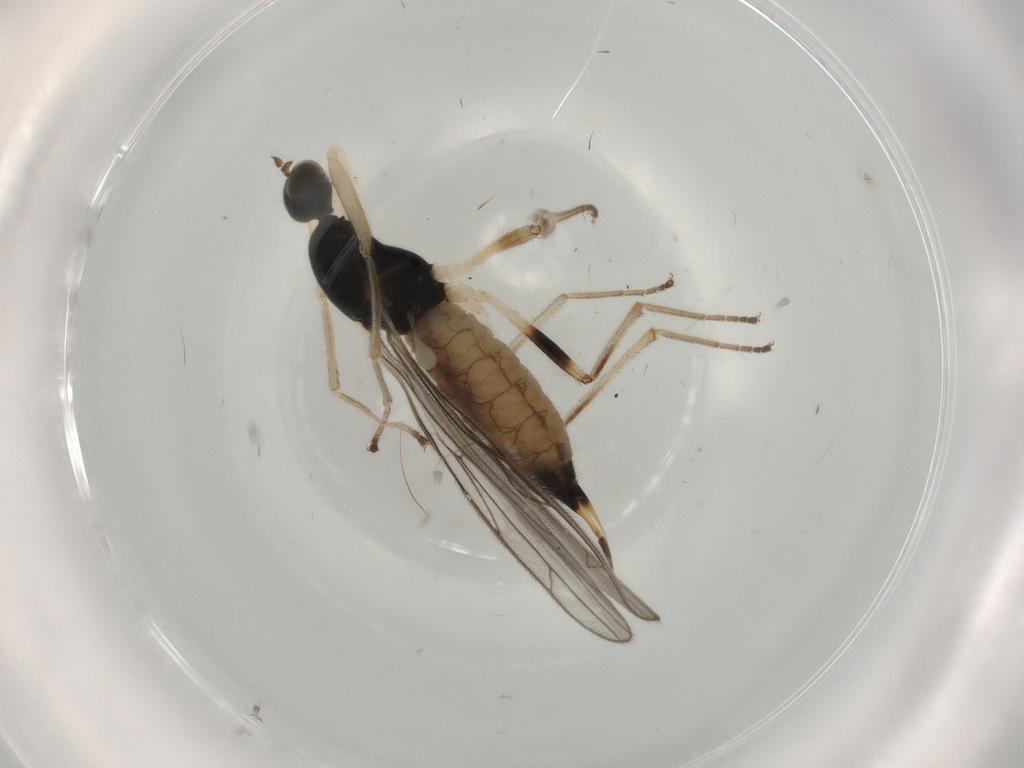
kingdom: Animalia
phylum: Arthropoda
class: Insecta
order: Diptera
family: Empididae
